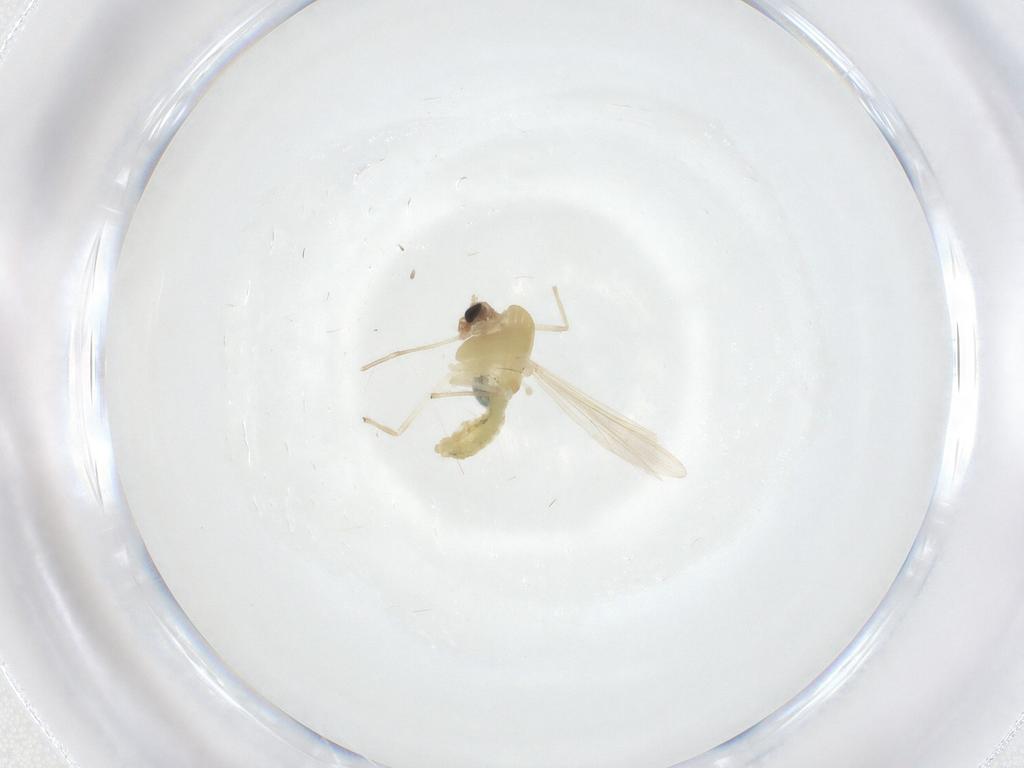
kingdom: Animalia
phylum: Arthropoda
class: Insecta
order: Diptera
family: Chironomidae
